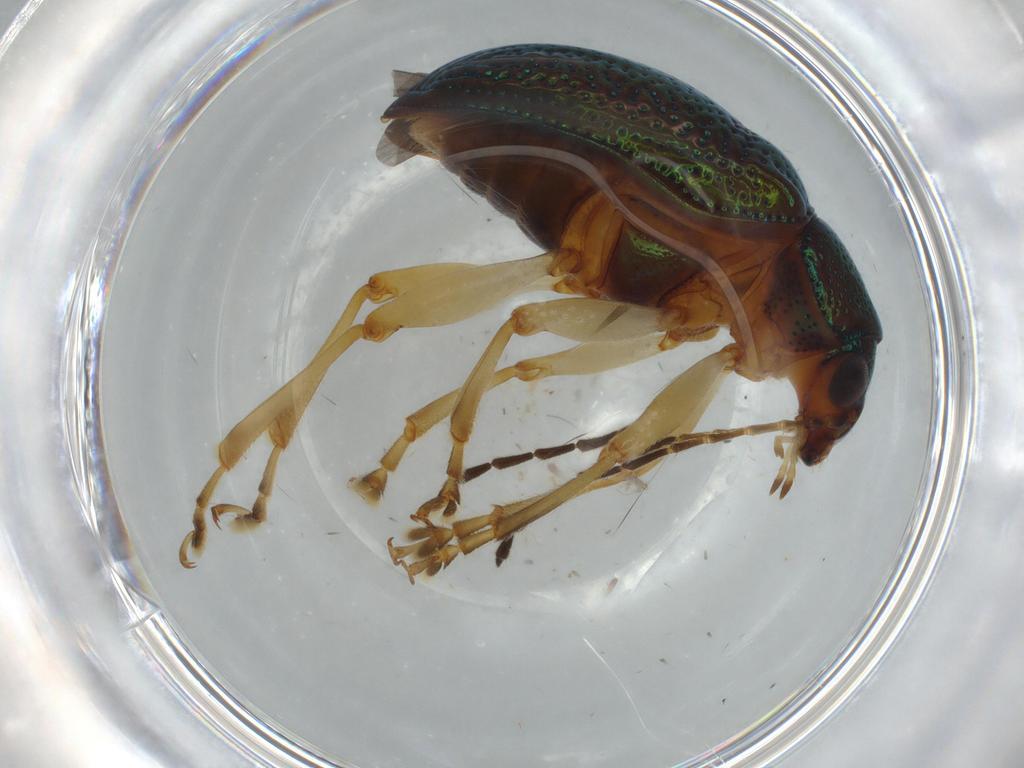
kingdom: Animalia
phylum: Arthropoda
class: Insecta
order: Coleoptera
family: Chrysomelidae
